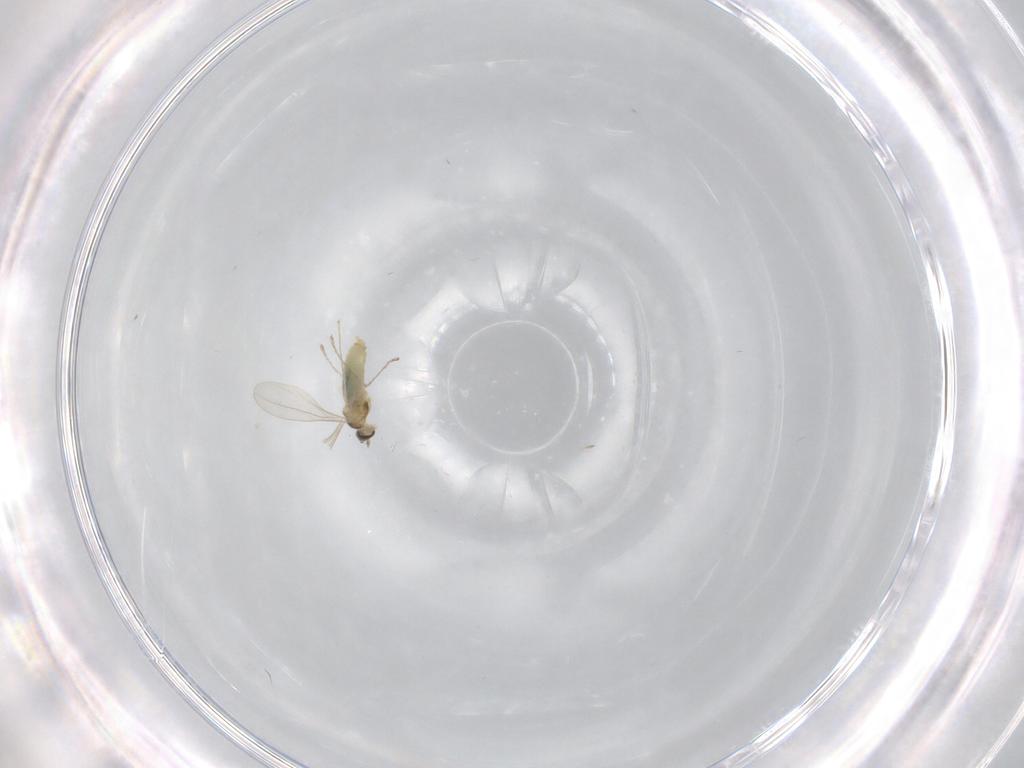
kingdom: Animalia
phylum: Arthropoda
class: Insecta
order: Diptera
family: Cecidomyiidae
